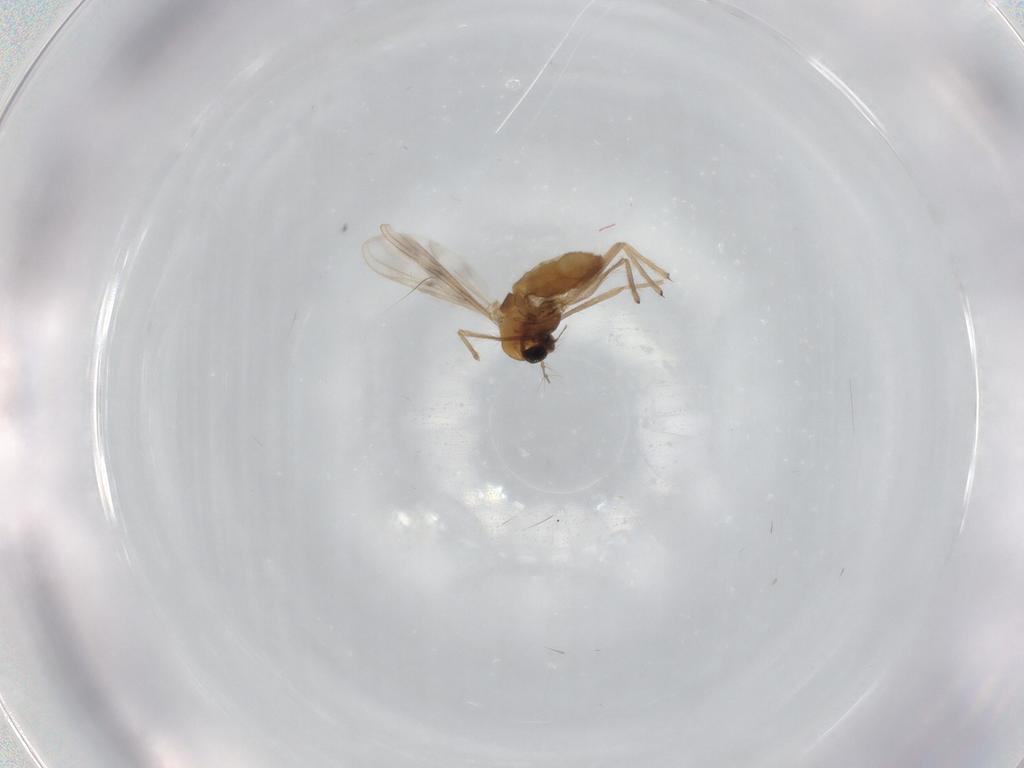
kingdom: Animalia
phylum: Arthropoda
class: Insecta
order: Diptera
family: Chironomidae
